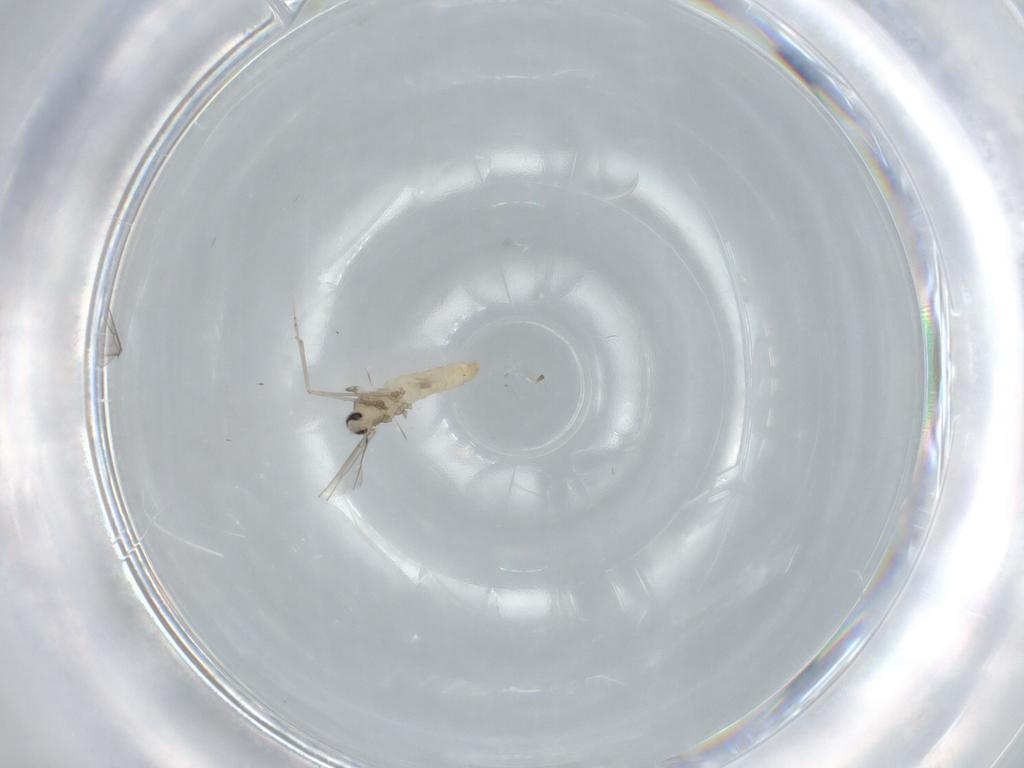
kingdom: Animalia
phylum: Arthropoda
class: Insecta
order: Diptera
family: Cecidomyiidae
